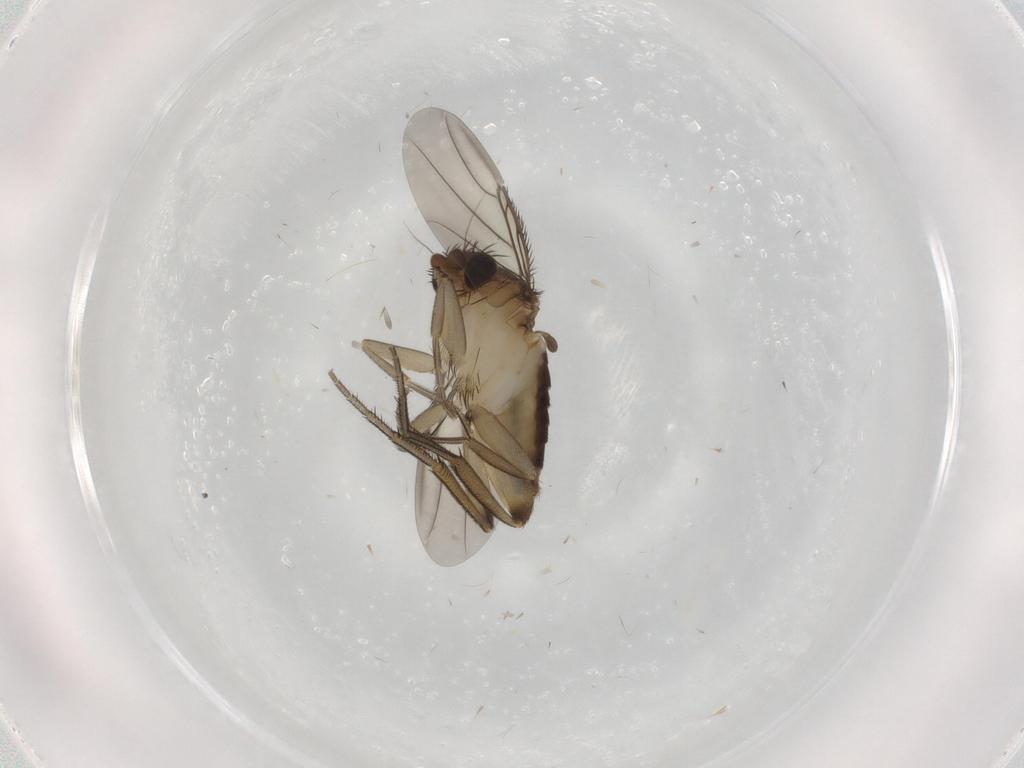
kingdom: Animalia
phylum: Arthropoda
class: Insecta
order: Diptera
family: Phoridae
